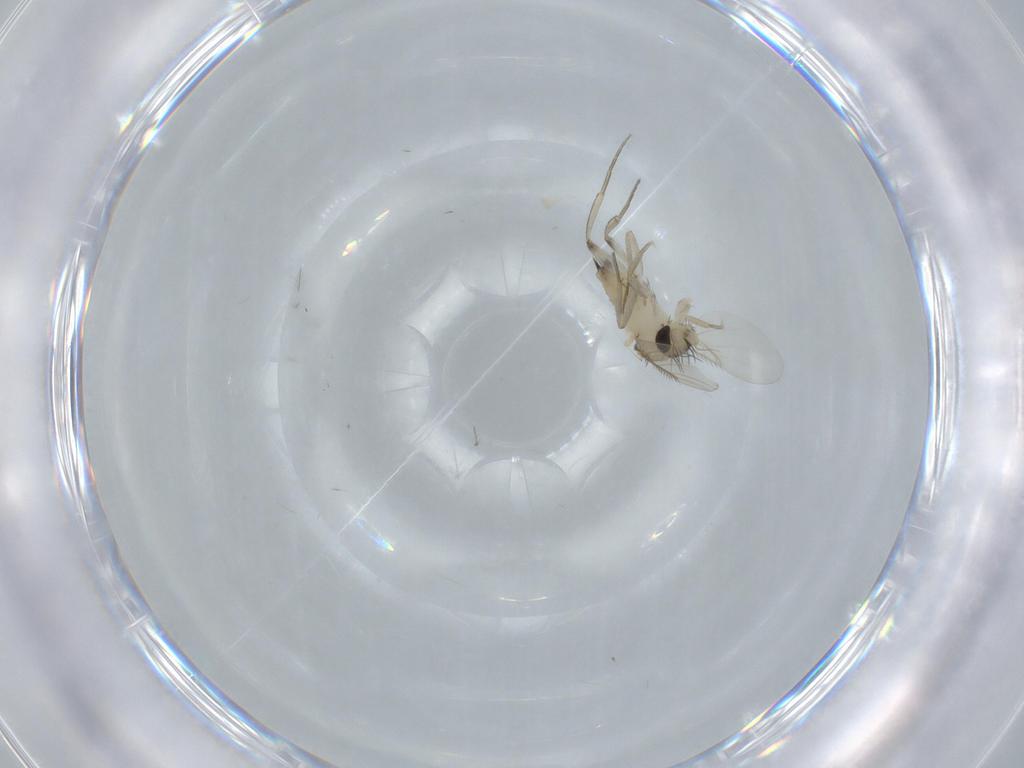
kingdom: Animalia
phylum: Arthropoda
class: Insecta
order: Diptera
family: Phoridae
